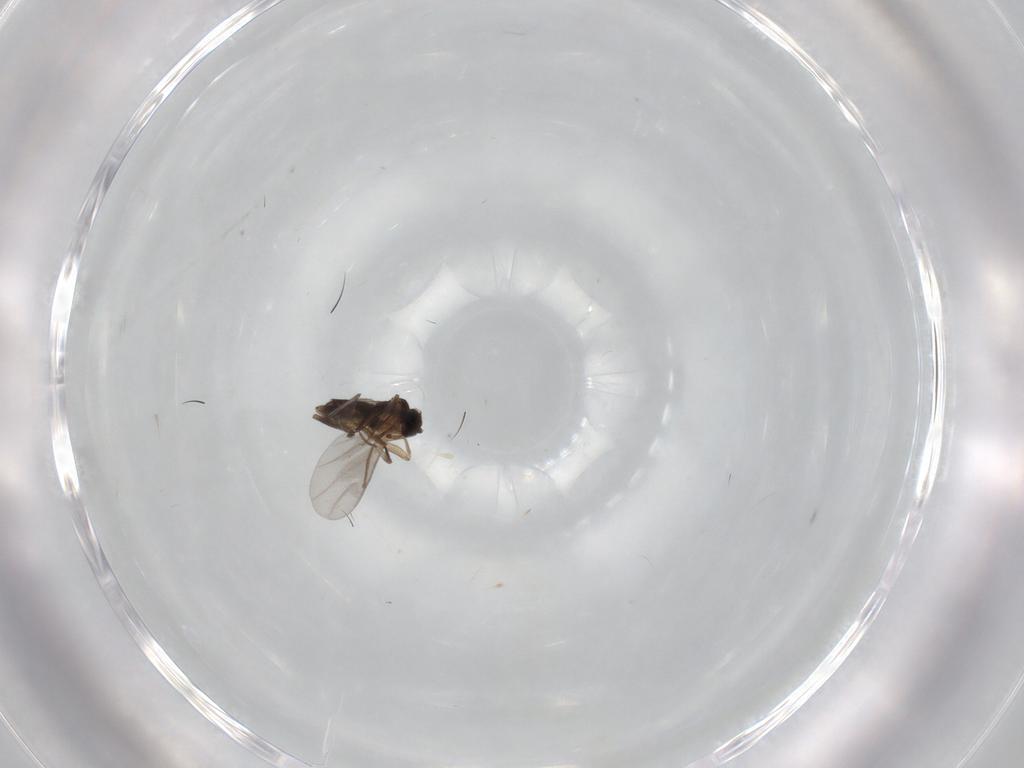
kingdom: Animalia
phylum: Arthropoda
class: Insecta
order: Diptera
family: Dolichopodidae
